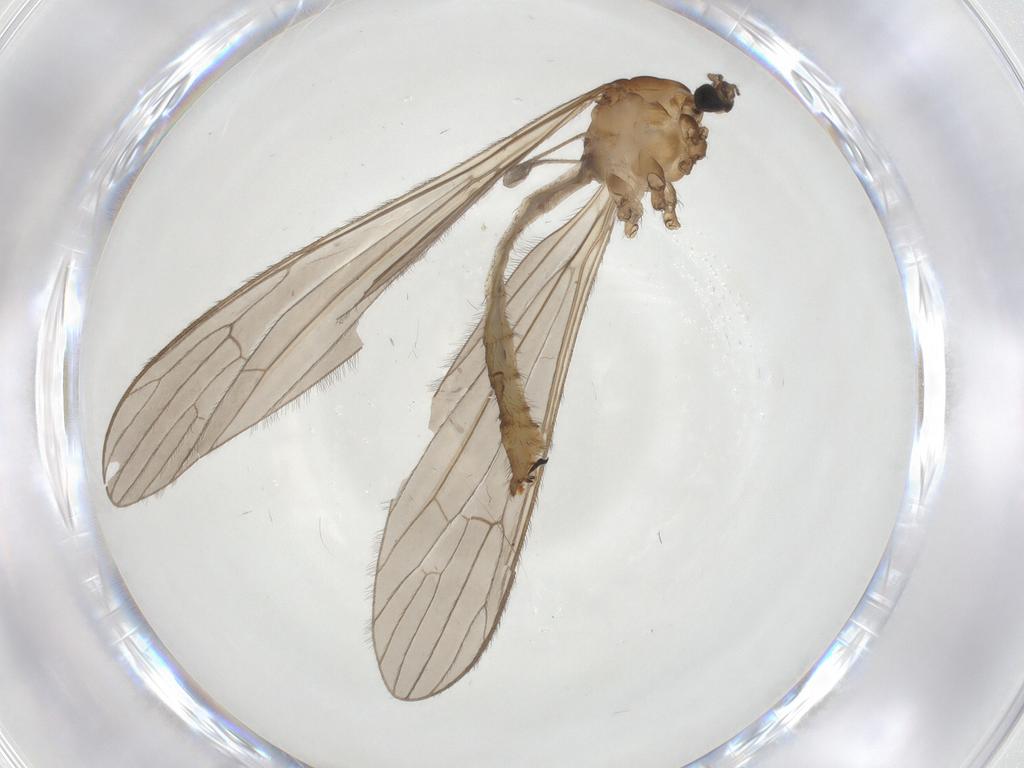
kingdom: Animalia
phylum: Arthropoda
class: Insecta
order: Diptera
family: Limoniidae
